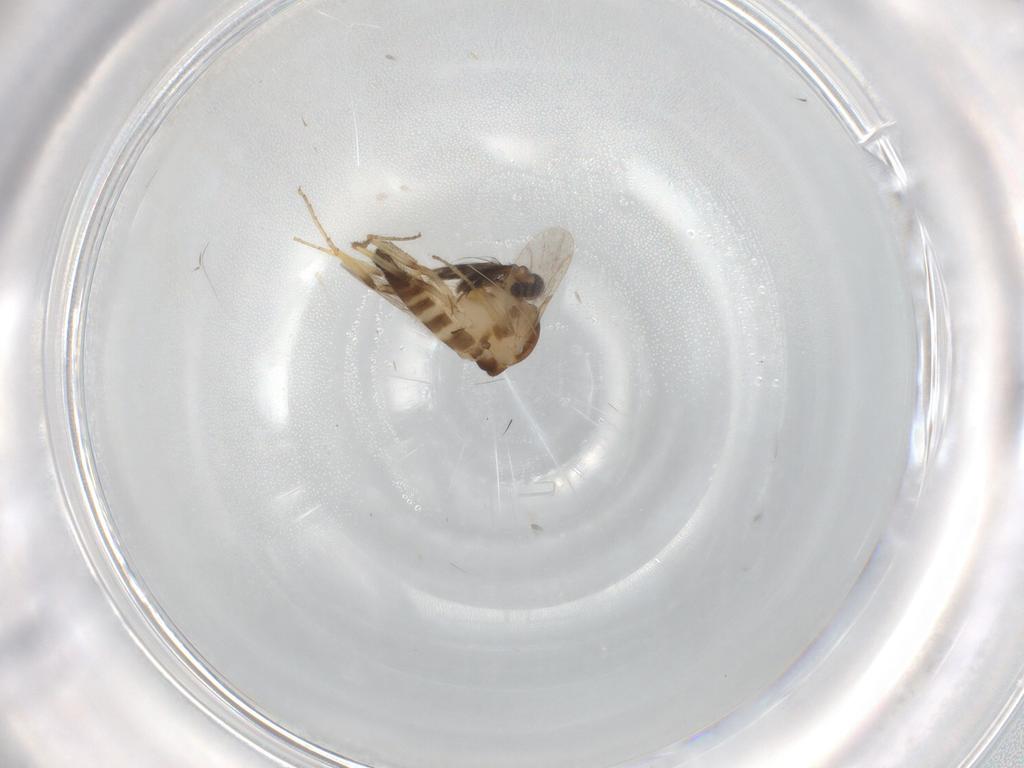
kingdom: Animalia
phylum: Arthropoda
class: Insecta
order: Diptera
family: Ceratopogonidae
